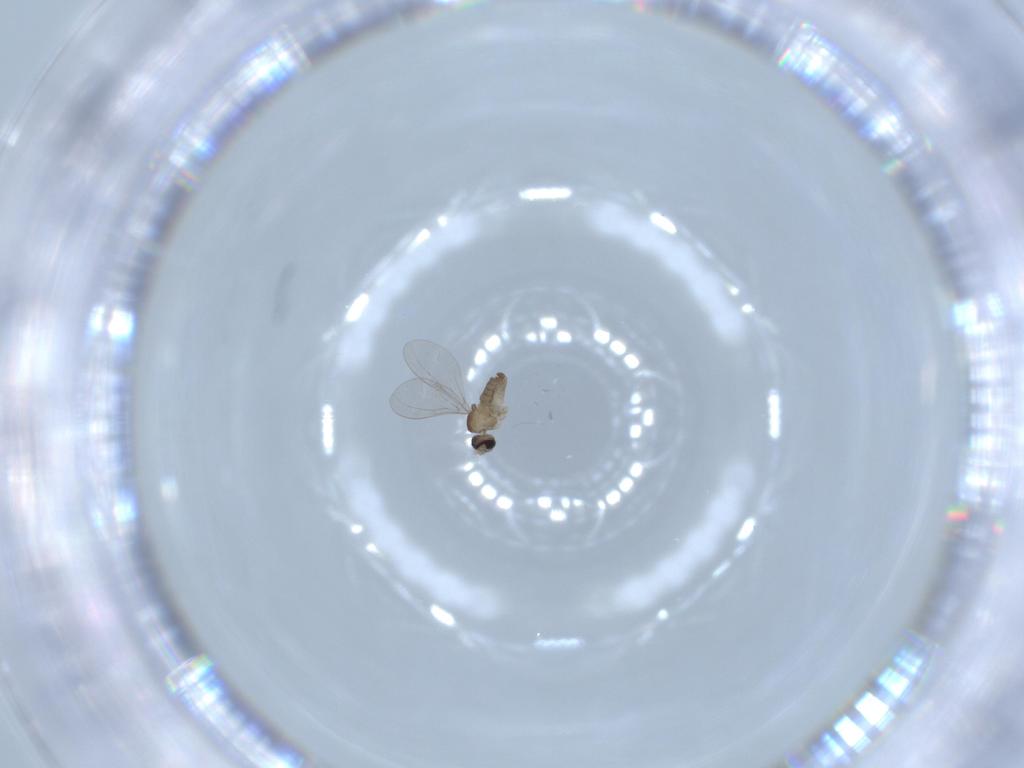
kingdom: Animalia
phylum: Arthropoda
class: Insecta
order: Diptera
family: Cecidomyiidae
